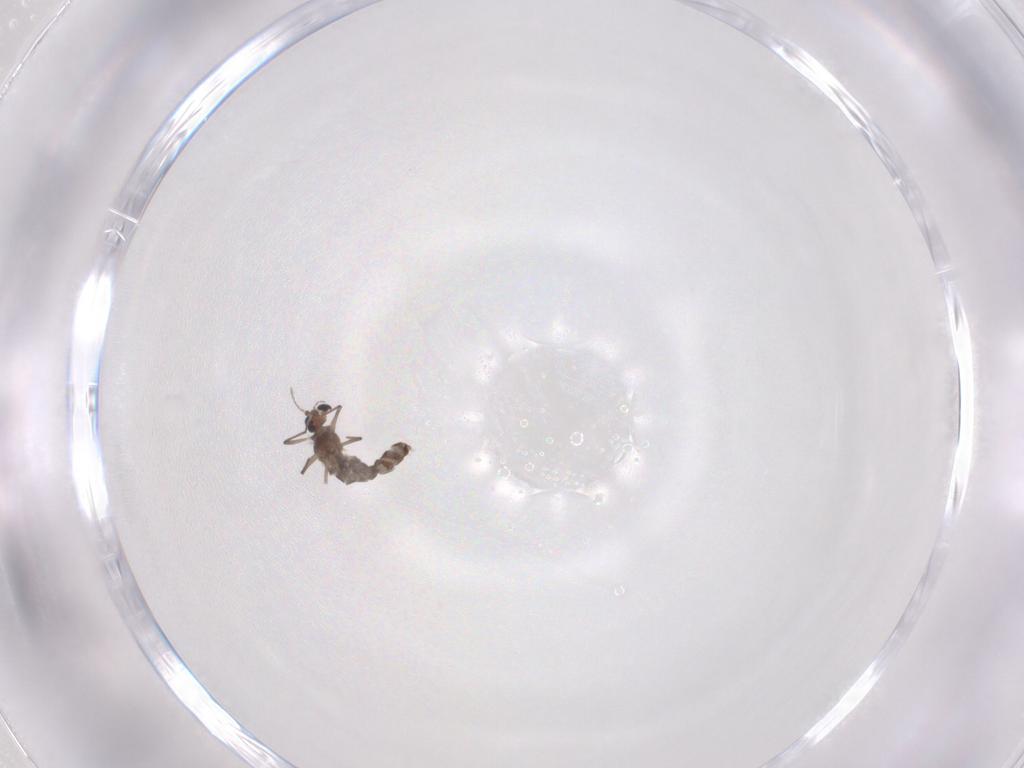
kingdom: Animalia
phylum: Arthropoda
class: Insecta
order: Diptera
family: Chironomidae
